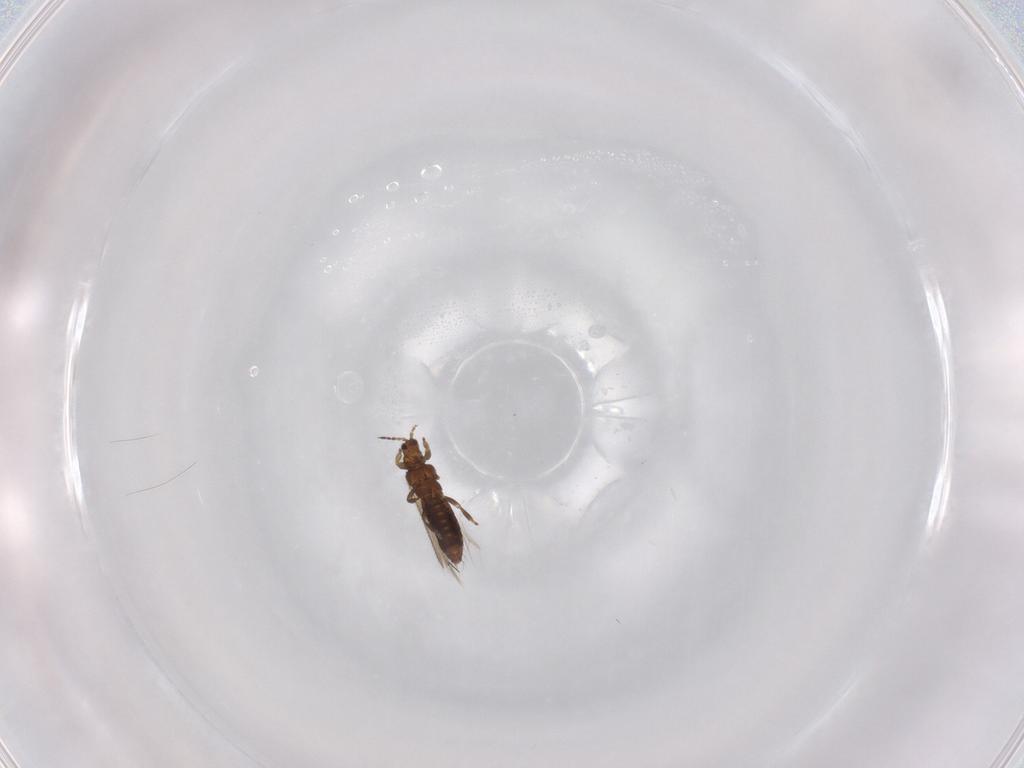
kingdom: Animalia
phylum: Arthropoda
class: Insecta
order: Thysanoptera
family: Thripidae
